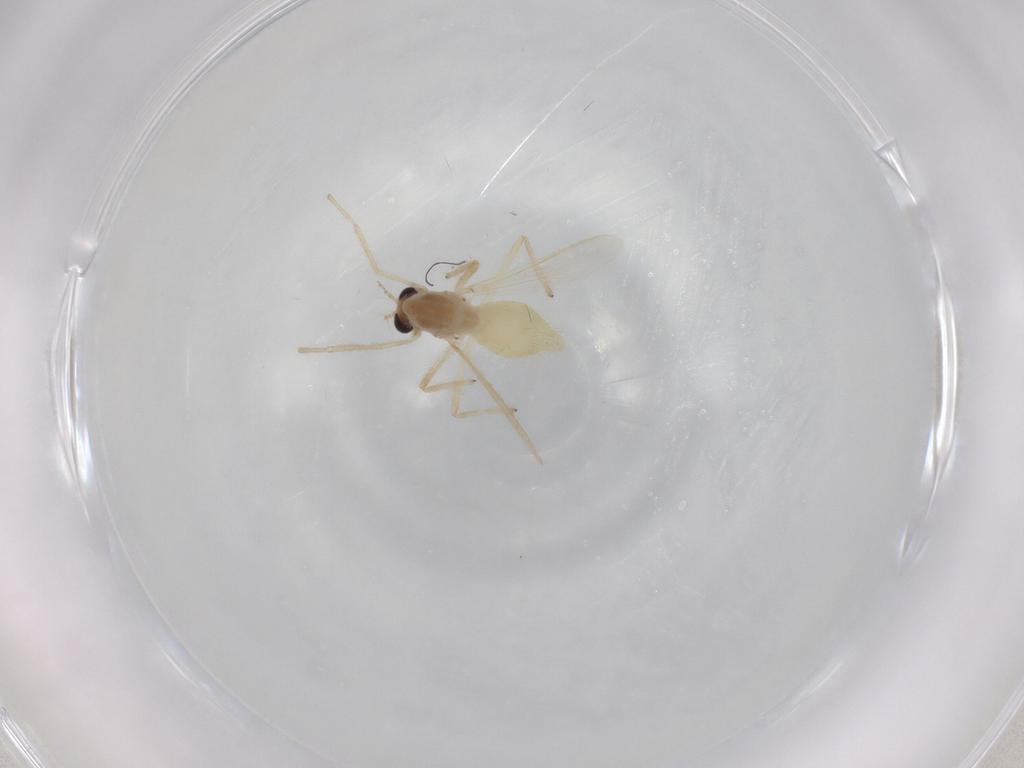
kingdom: Animalia
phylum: Arthropoda
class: Insecta
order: Diptera
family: Chironomidae
